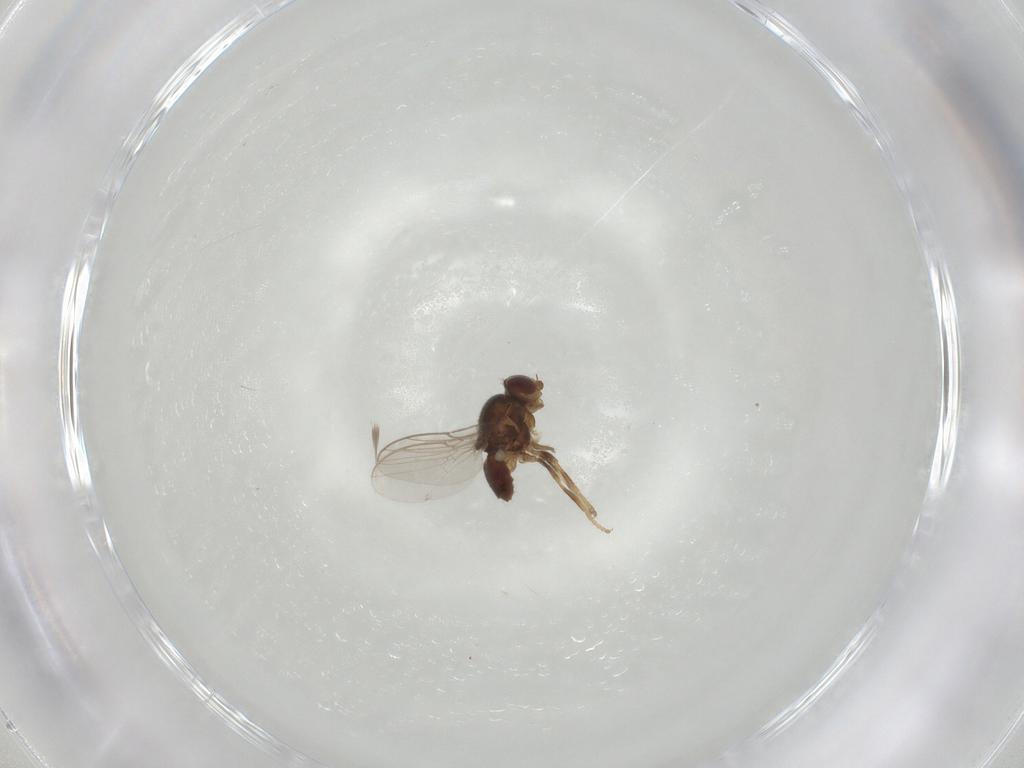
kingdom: Animalia
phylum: Arthropoda
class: Insecta
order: Diptera
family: Chloropidae
